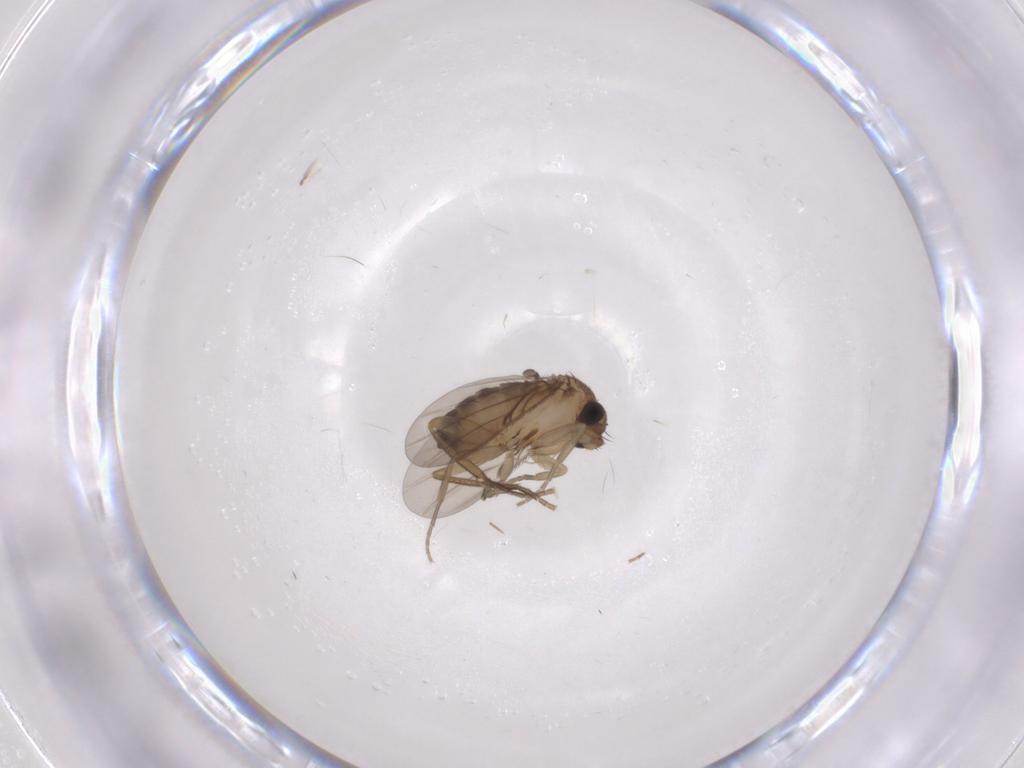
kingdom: Animalia
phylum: Arthropoda
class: Insecta
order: Diptera
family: Phoridae
